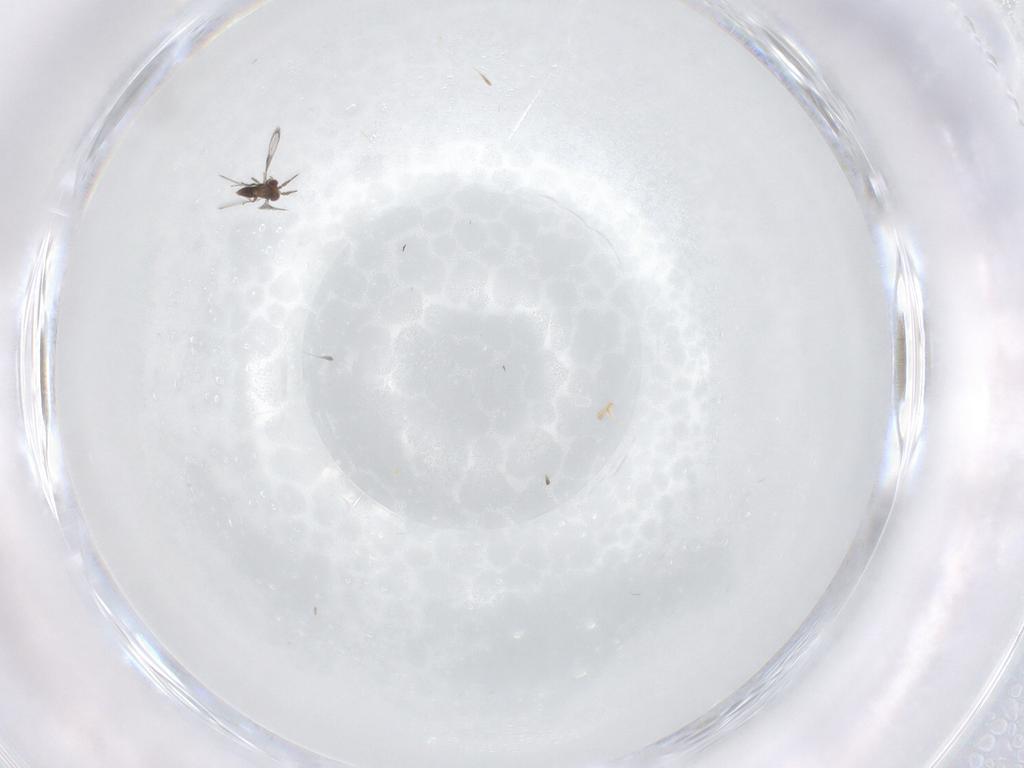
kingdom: Animalia
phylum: Arthropoda
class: Insecta
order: Hymenoptera
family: Trichogrammatidae
